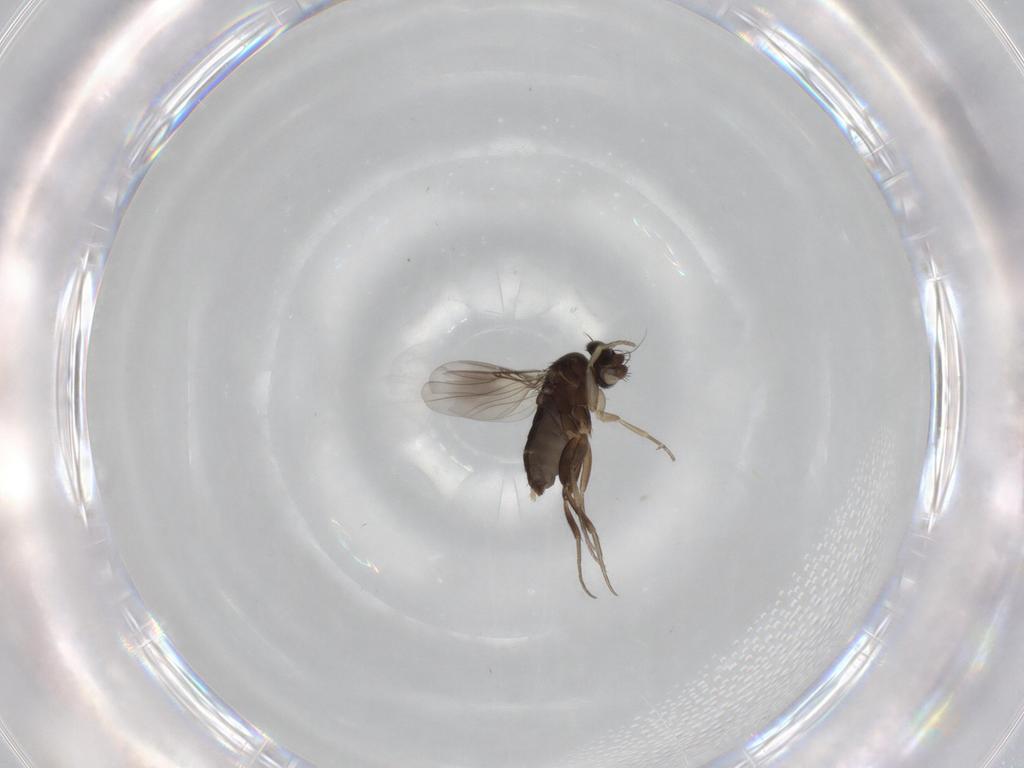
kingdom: Animalia
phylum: Arthropoda
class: Insecta
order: Diptera
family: Phoridae
